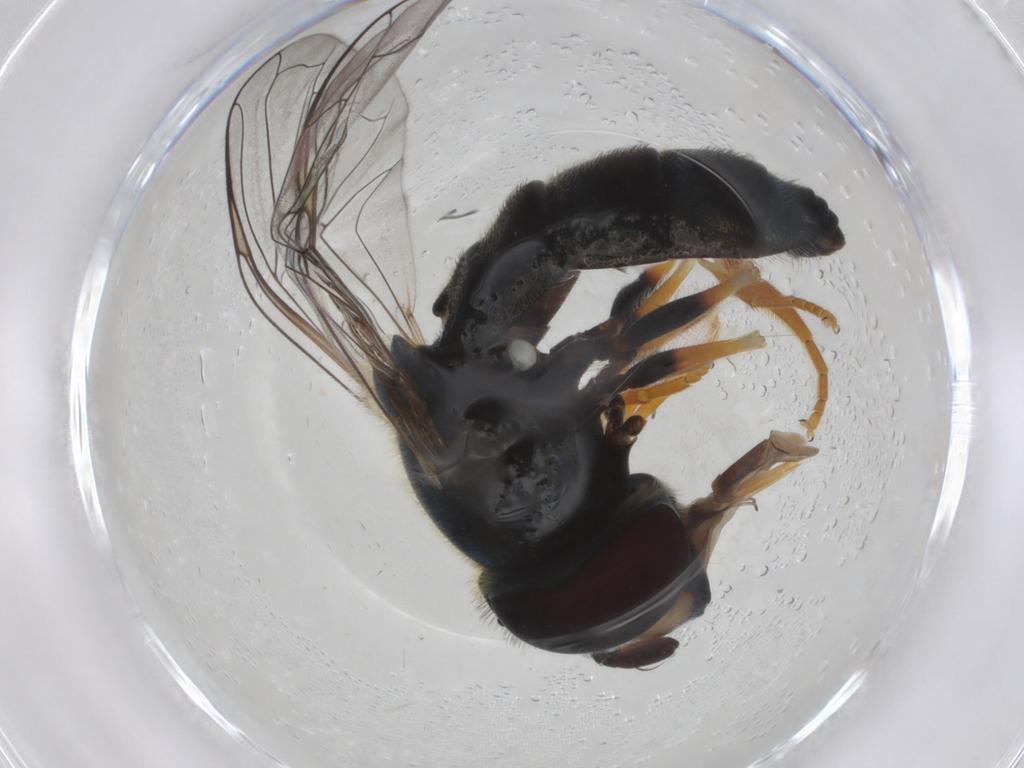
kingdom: Animalia
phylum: Arthropoda
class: Insecta
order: Diptera
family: Syrphidae
